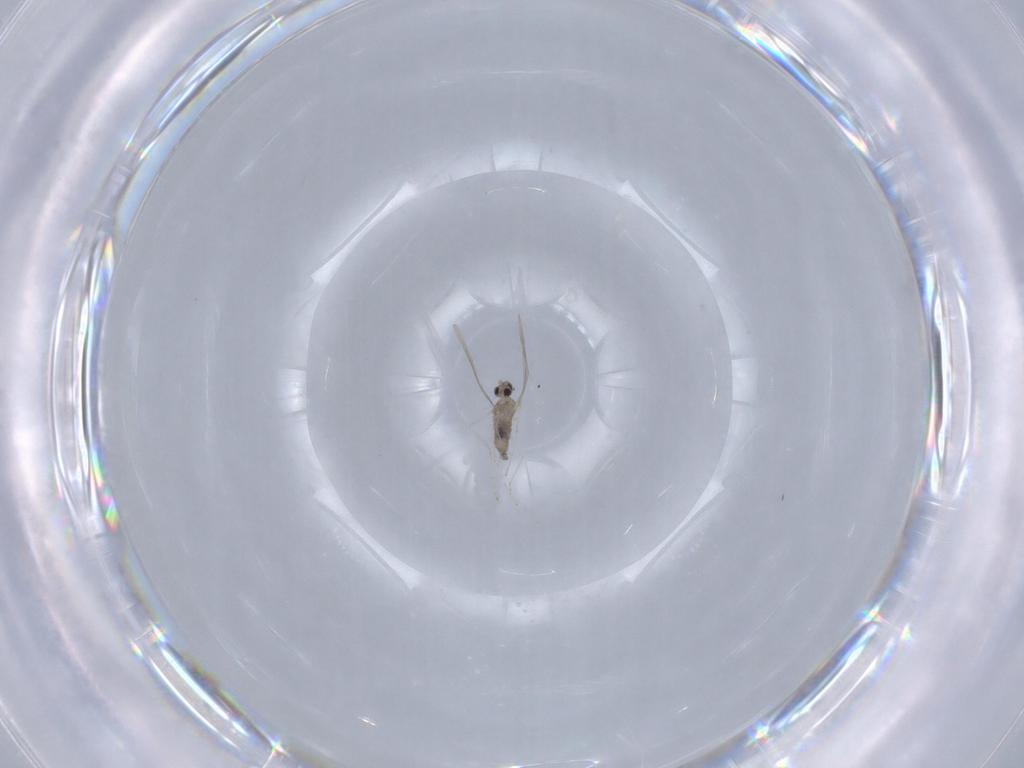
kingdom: Animalia
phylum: Arthropoda
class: Insecta
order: Diptera
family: Cecidomyiidae
